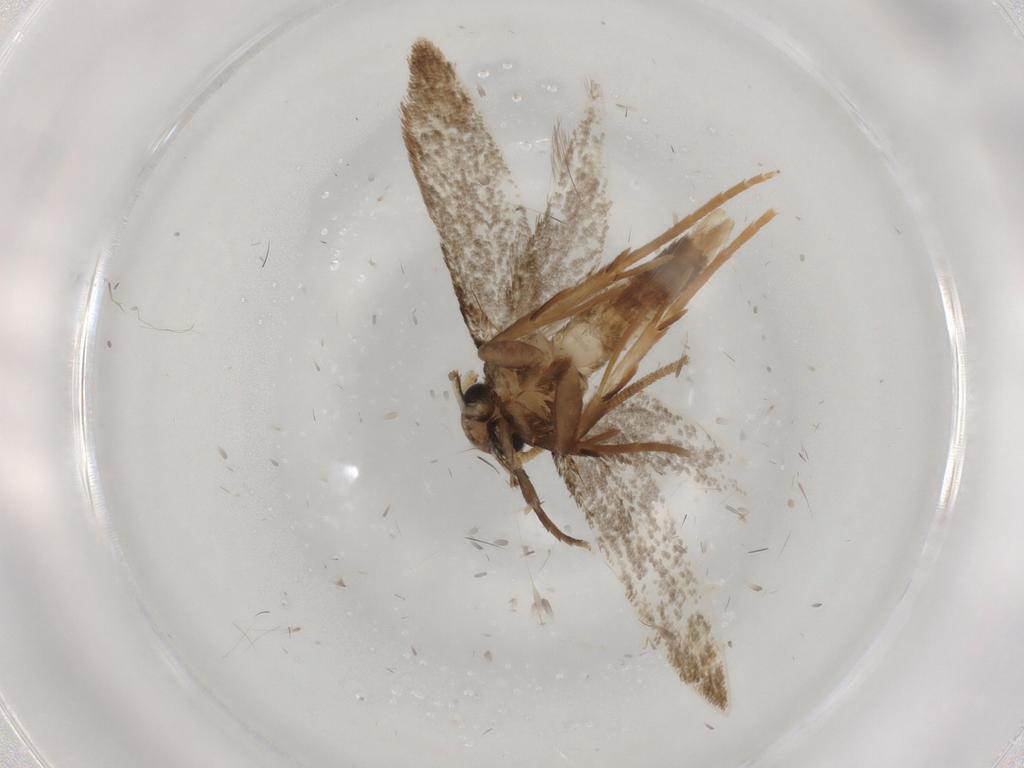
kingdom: Animalia
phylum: Arthropoda
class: Insecta
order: Lepidoptera
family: Coleophoridae
